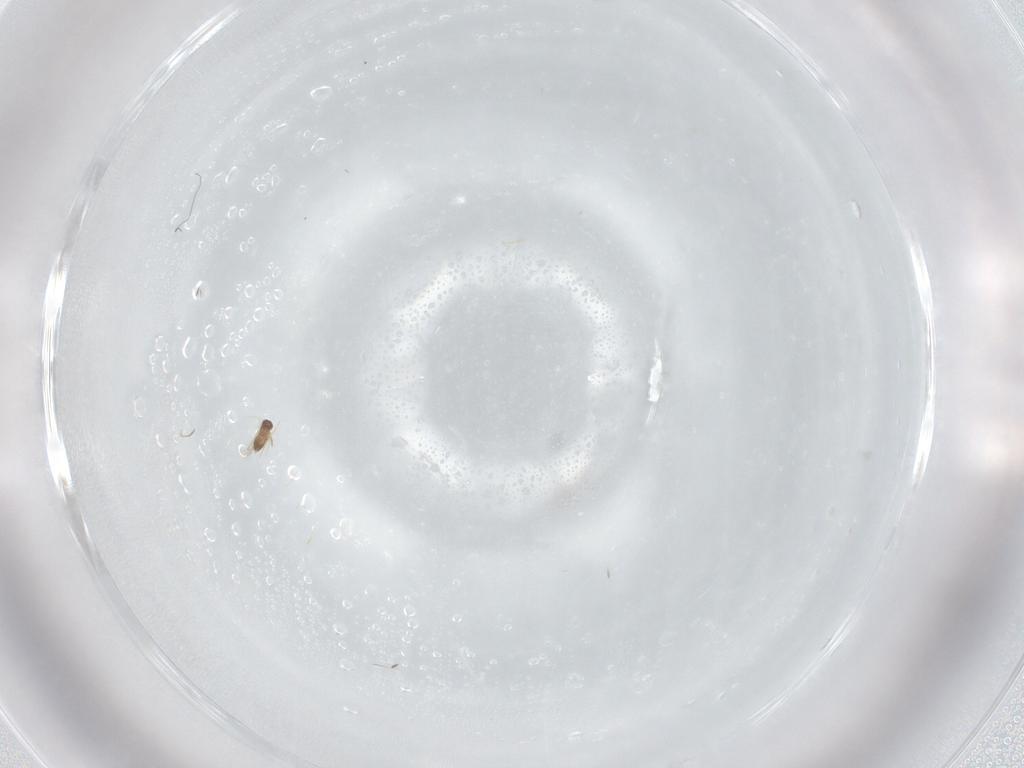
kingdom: Animalia
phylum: Arthropoda
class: Insecta
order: Hymenoptera
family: Mymaridae
